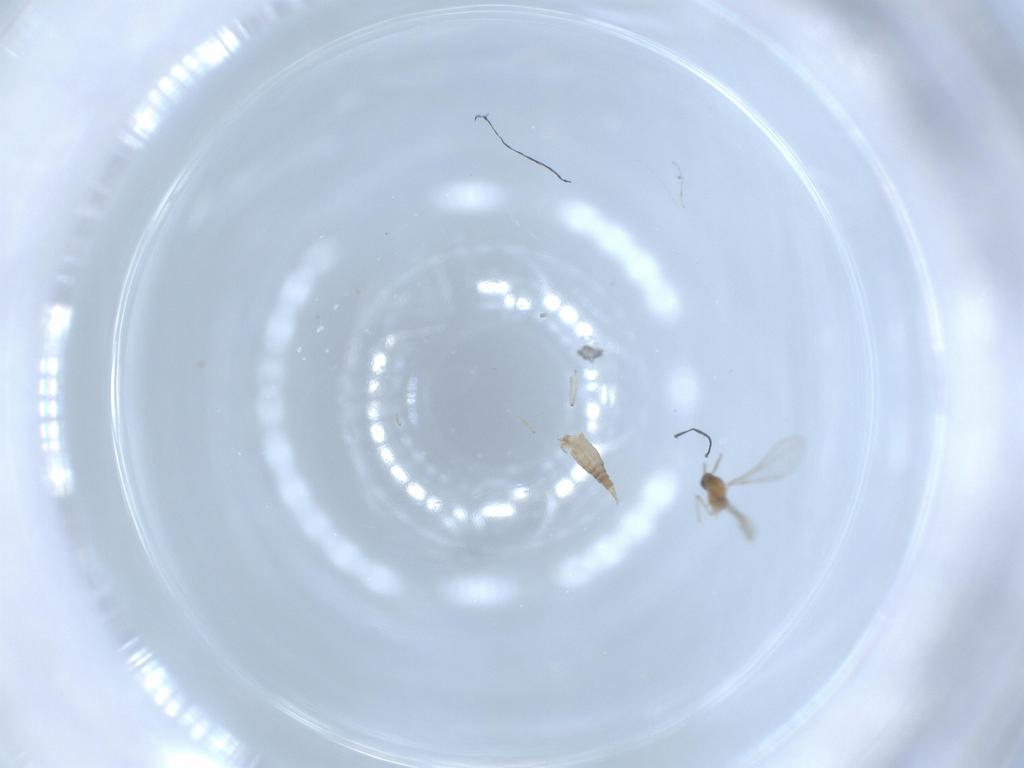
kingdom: Animalia
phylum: Arthropoda
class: Insecta
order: Diptera
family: Cecidomyiidae
